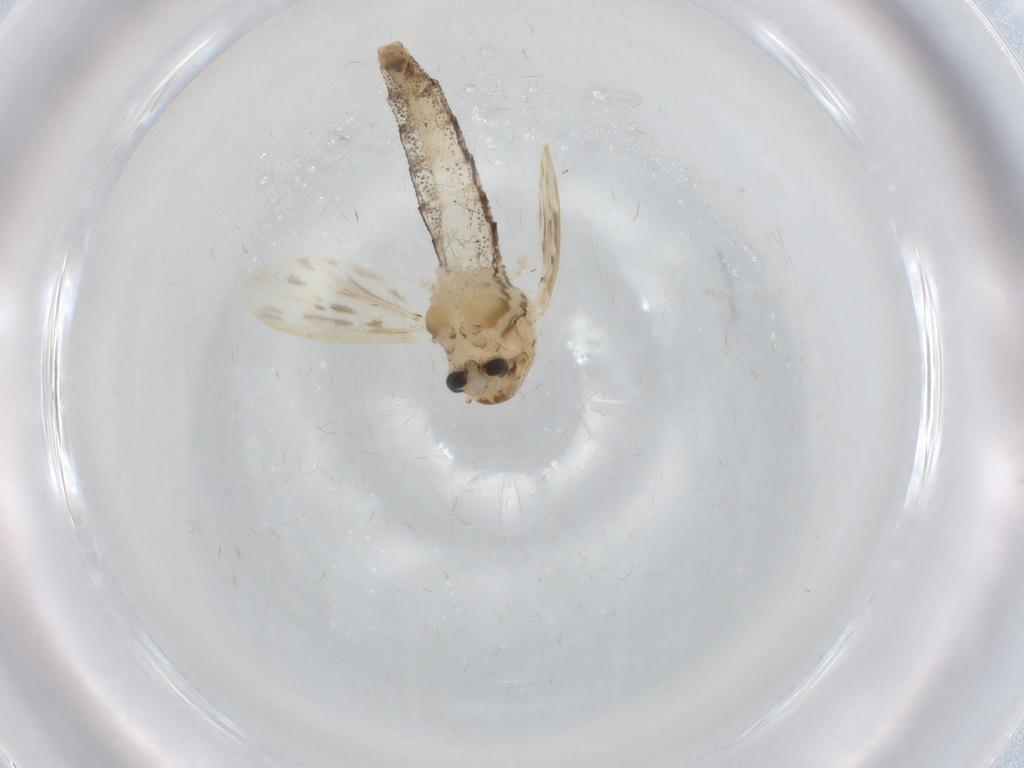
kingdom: Animalia
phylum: Arthropoda
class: Insecta
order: Diptera
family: Chaoboridae
